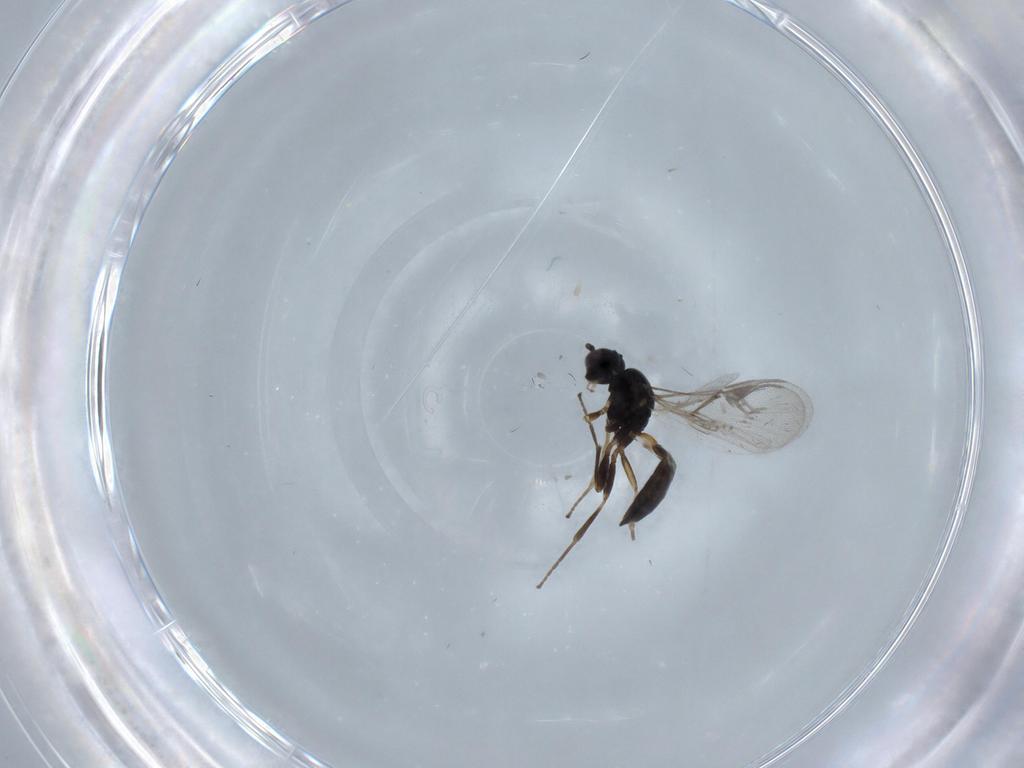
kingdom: Animalia
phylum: Arthropoda
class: Insecta
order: Hymenoptera
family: Braconidae
